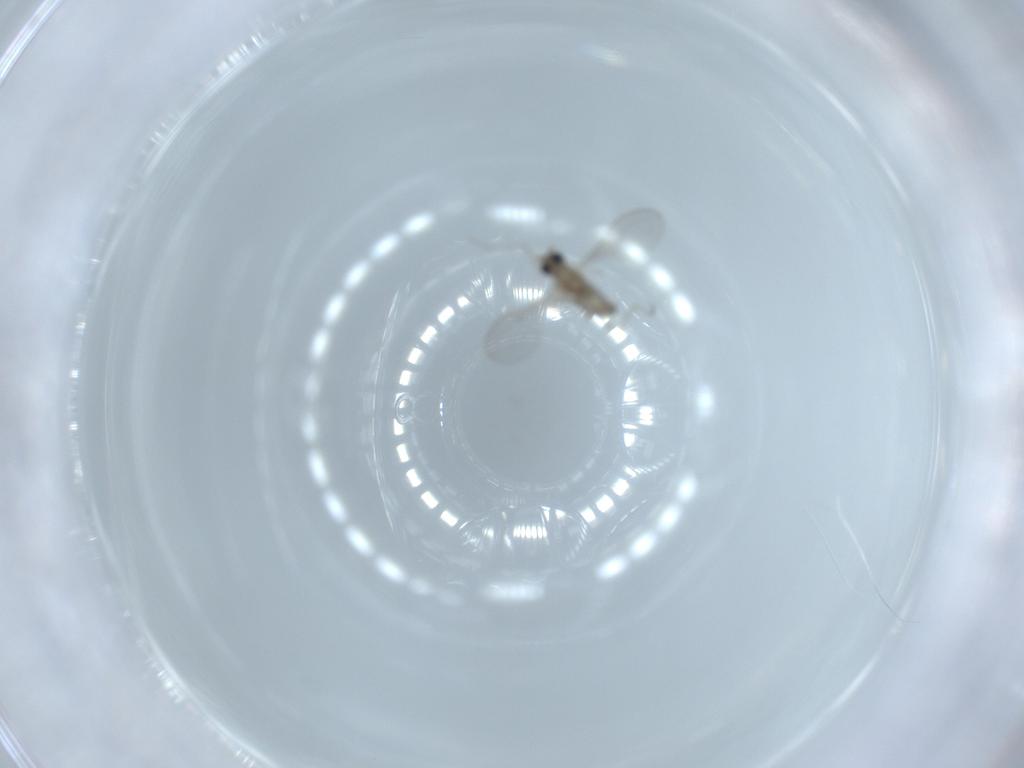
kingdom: Animalia
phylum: Arthropoda
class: Insecta
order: Diptera
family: Cecidomyiidae
